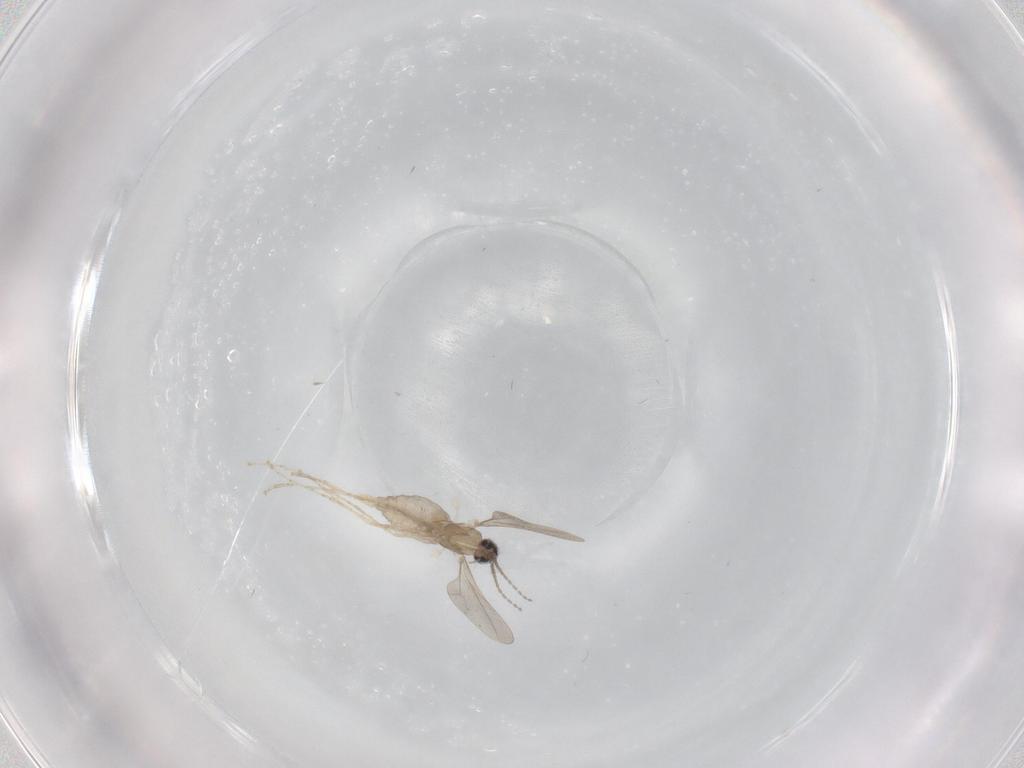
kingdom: Animalia
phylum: Arthropoda
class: Insecta
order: Diptera
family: Cecidomyiidae
